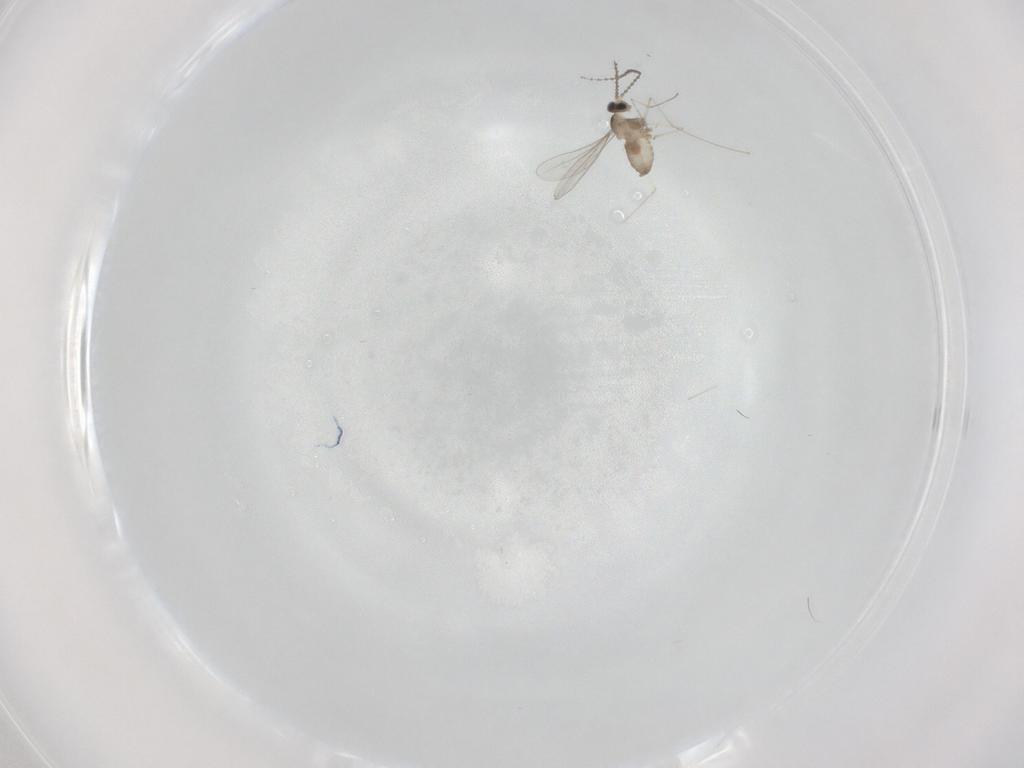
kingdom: Animalia
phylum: Arthropoda
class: Insecta
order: Diptera
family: Cecidomyiidae
